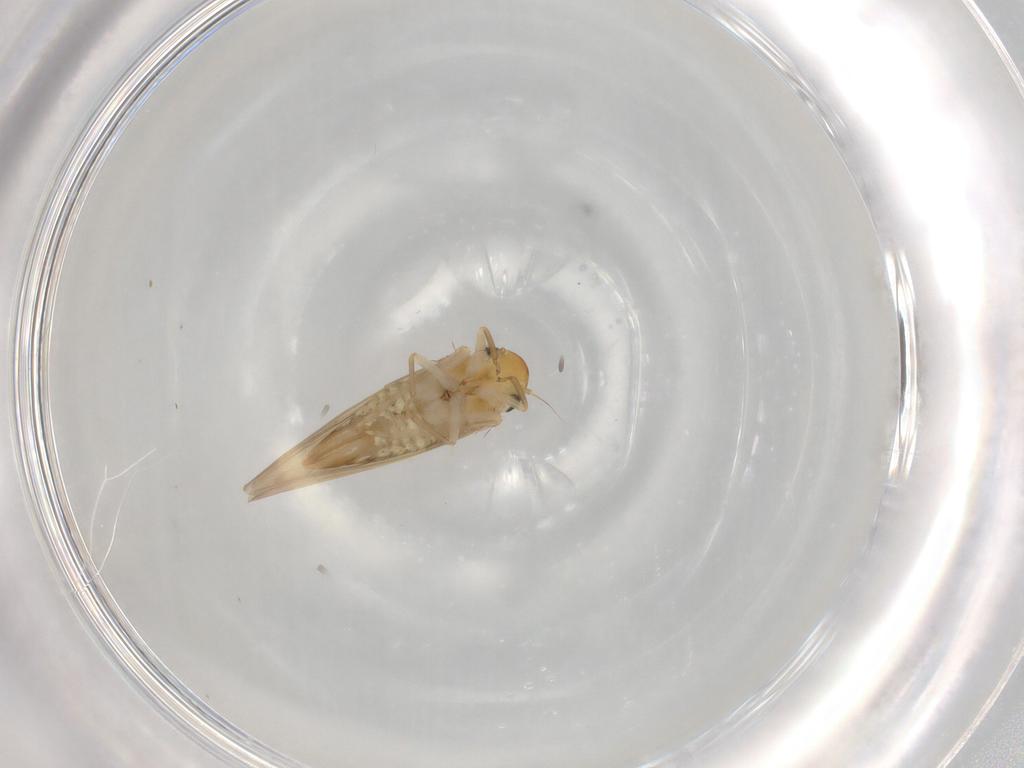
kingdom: Animalia
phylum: Arthropoda
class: Insecta
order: Hemiptera
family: Cicadellidae
